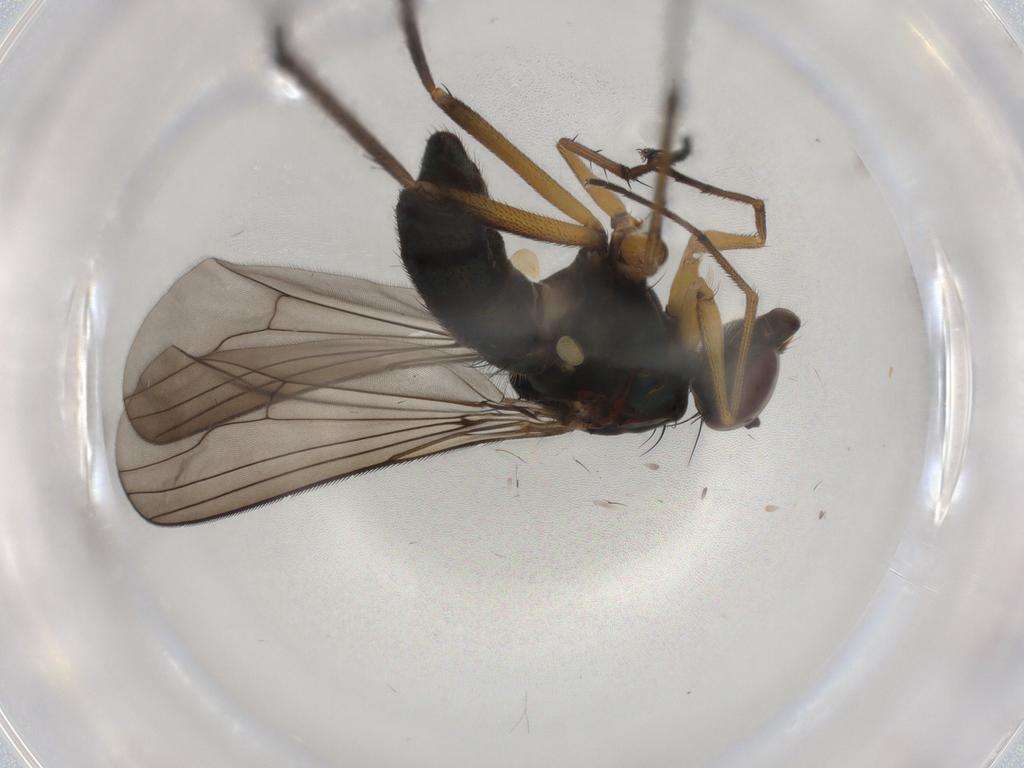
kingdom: Animalia
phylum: Arthropoda
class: Insecta
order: Diptera
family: Dolichopodidae
